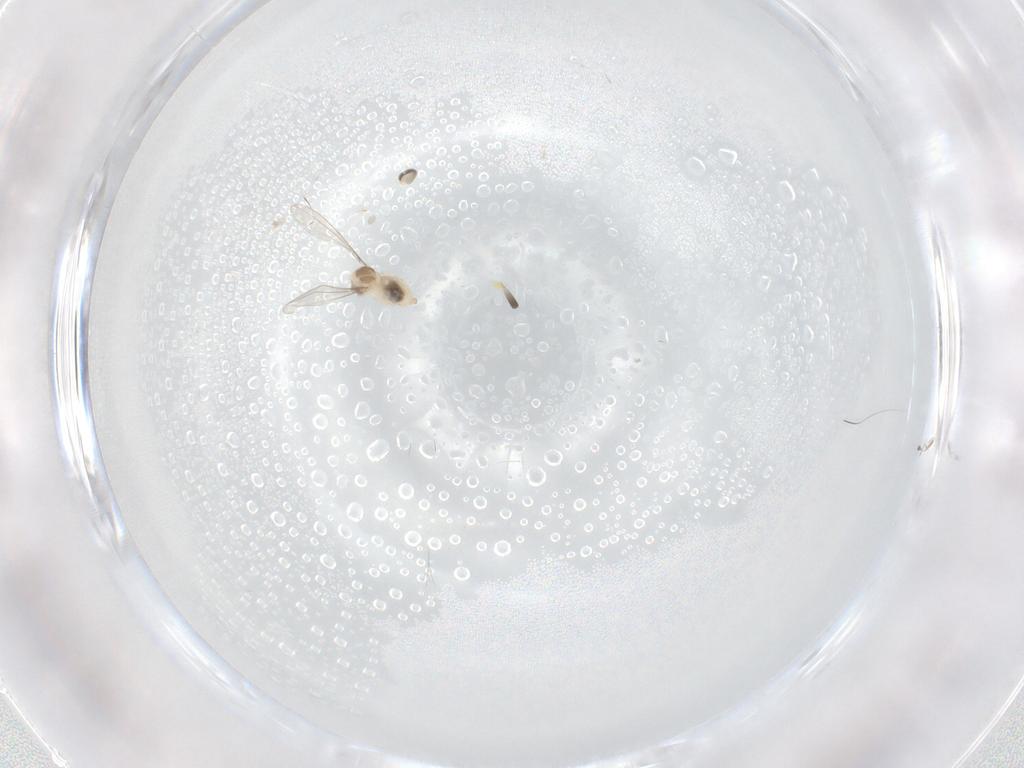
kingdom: Animalia
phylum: Arthropoda
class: Insecta
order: Diptera
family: Cecidomyiidae
